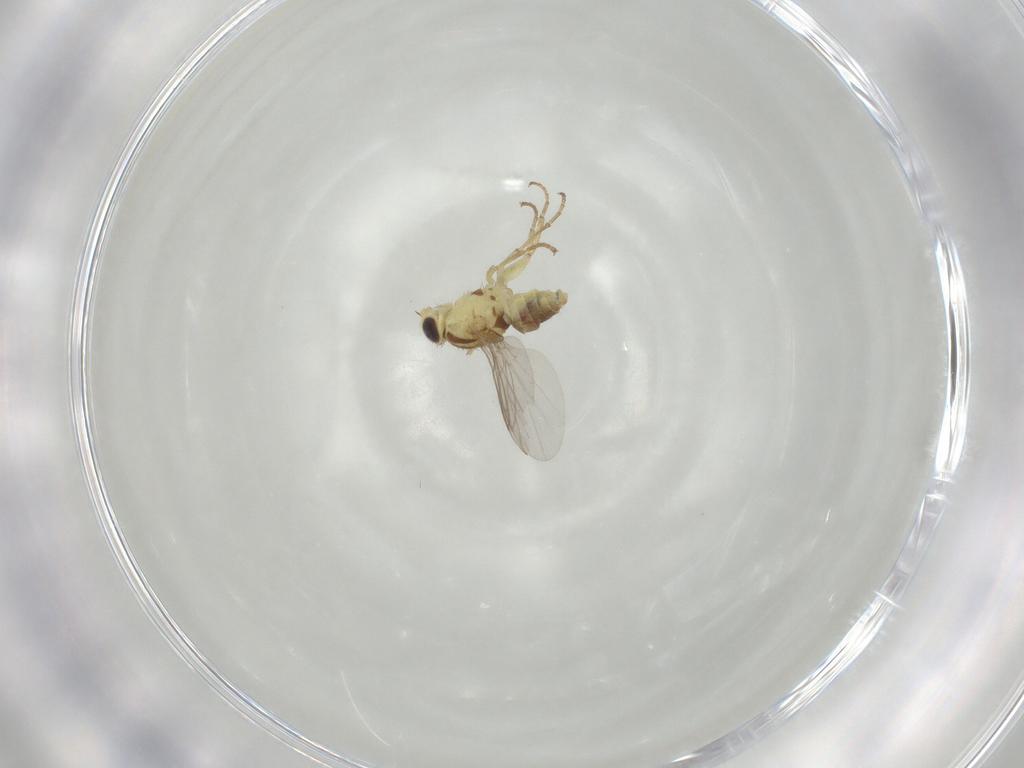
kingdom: Animalia
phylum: Arthropoda
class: Insecta
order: Diptera
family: Agromyzidae
